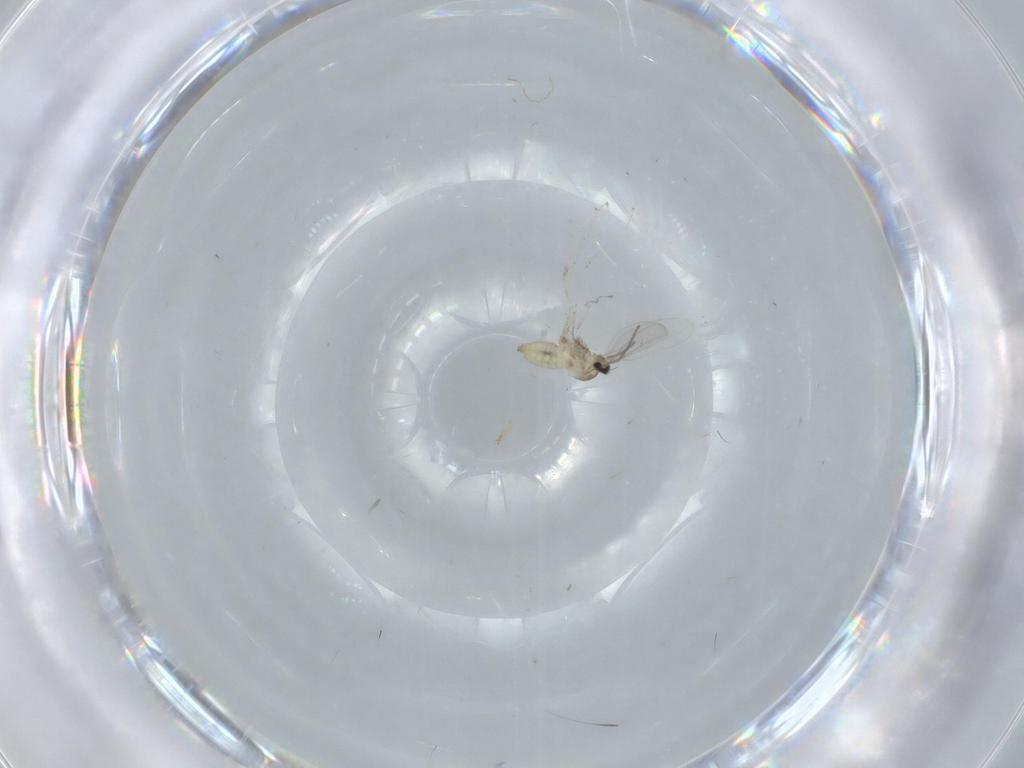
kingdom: Animalia
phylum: Arthropoda
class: Insecta
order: Diptera
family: Cecidomyiidae
